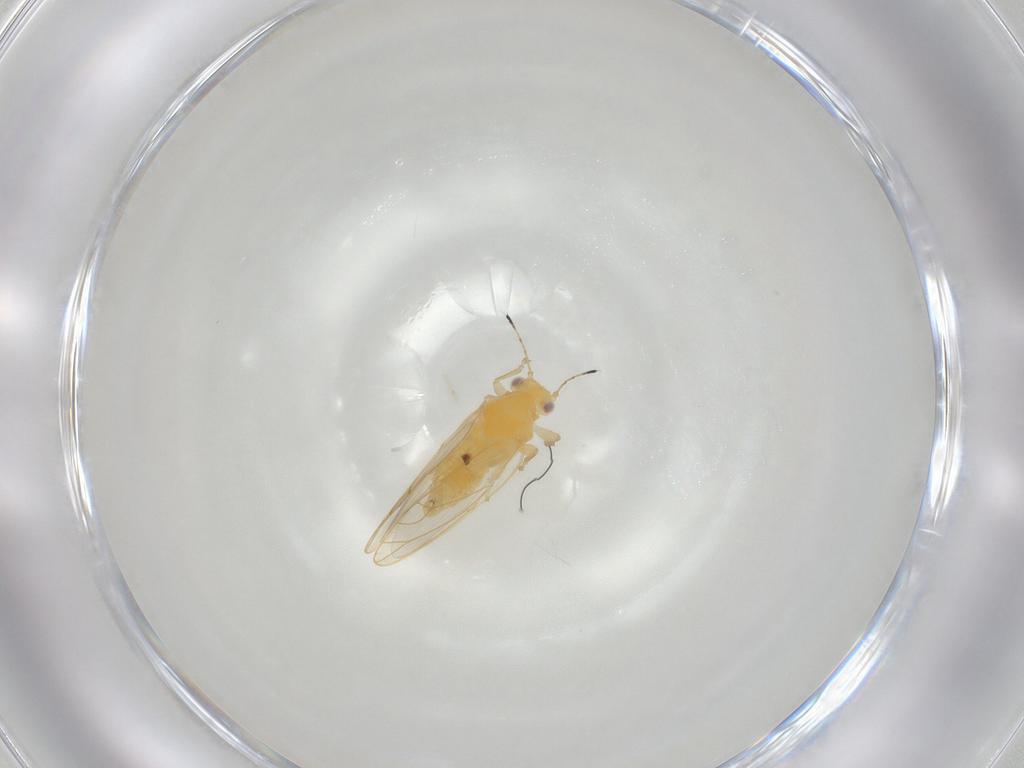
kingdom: Animalia
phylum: Arthropoda
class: Insecta
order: Hemiptera
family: Triozidae
